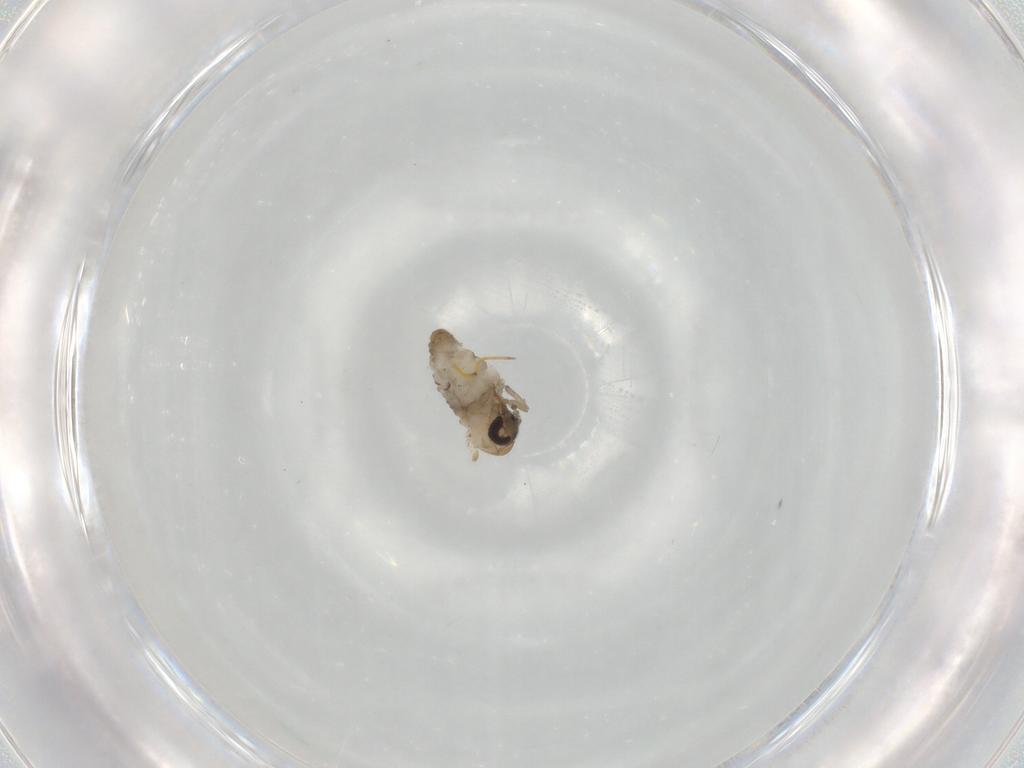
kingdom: Animalia
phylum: Arthropoda
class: Insecta
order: Diptera
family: Psychodidae
